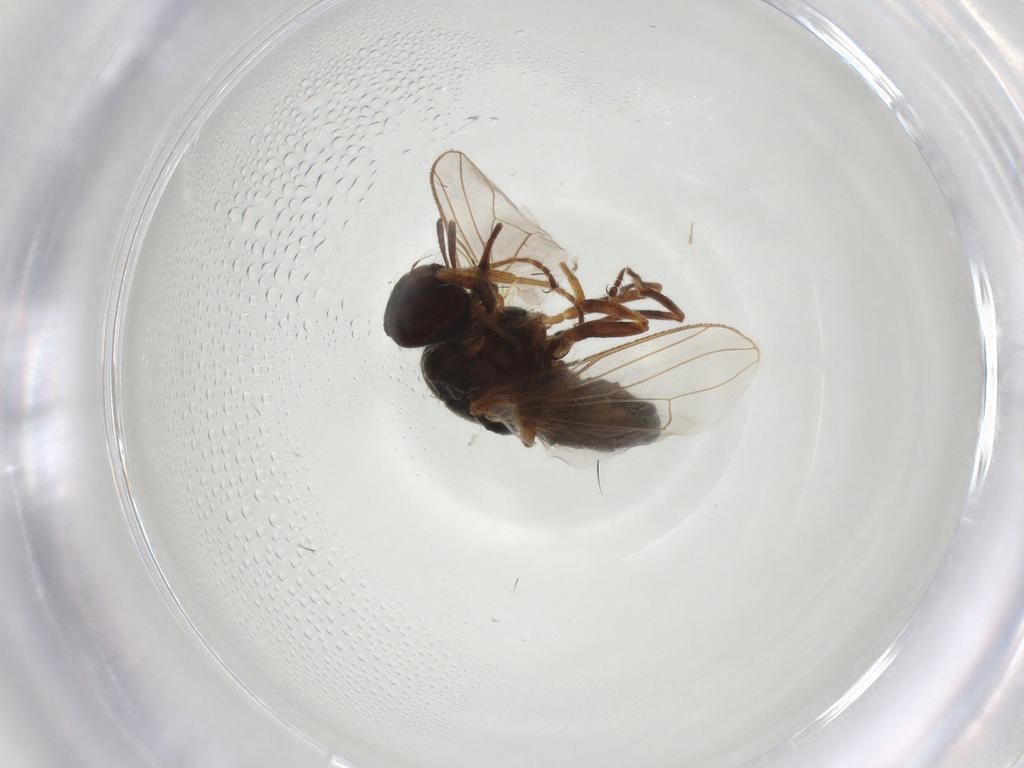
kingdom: Animalia
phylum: Arthropoda
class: Insecta
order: Diptera
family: Muscidae
